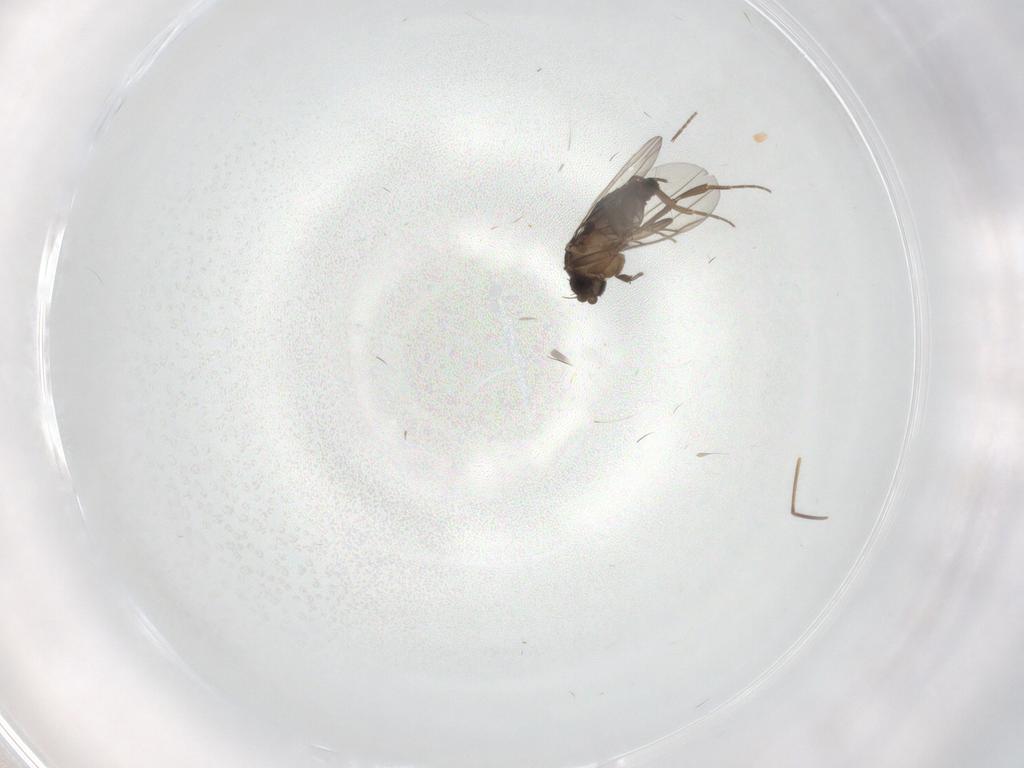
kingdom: Animalia
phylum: Arthropoda
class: Insecta
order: Diptera
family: Phoridae
